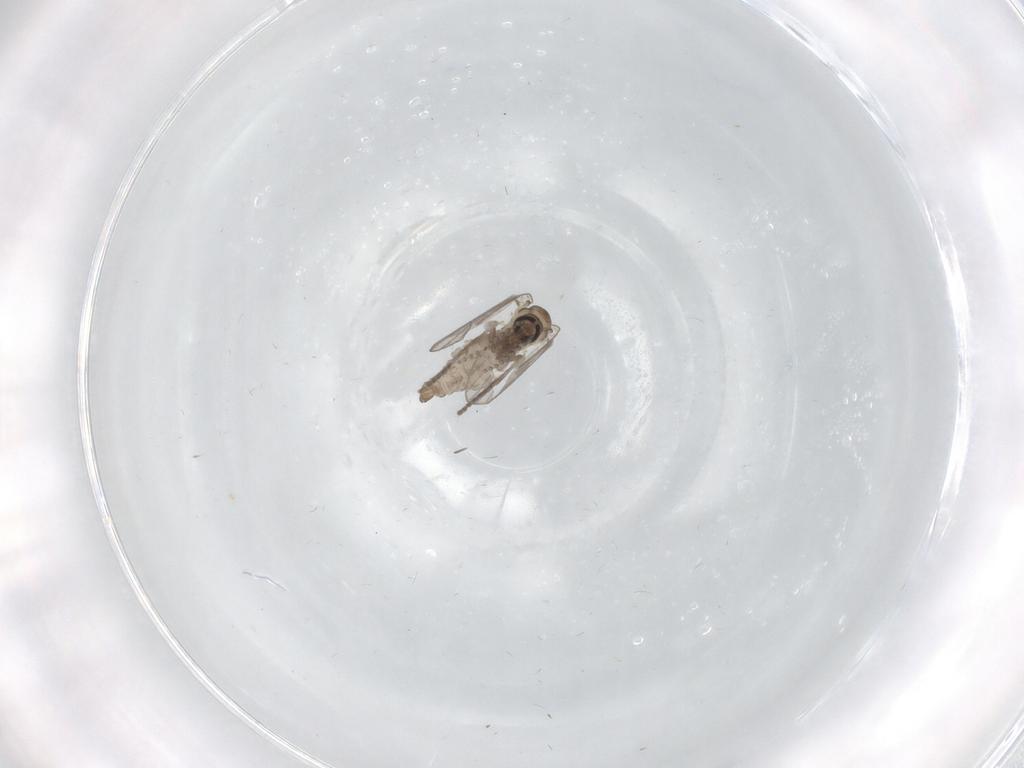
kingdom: Animalia
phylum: Arthropoda
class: Insecta
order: Diptera
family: Psychodidae
